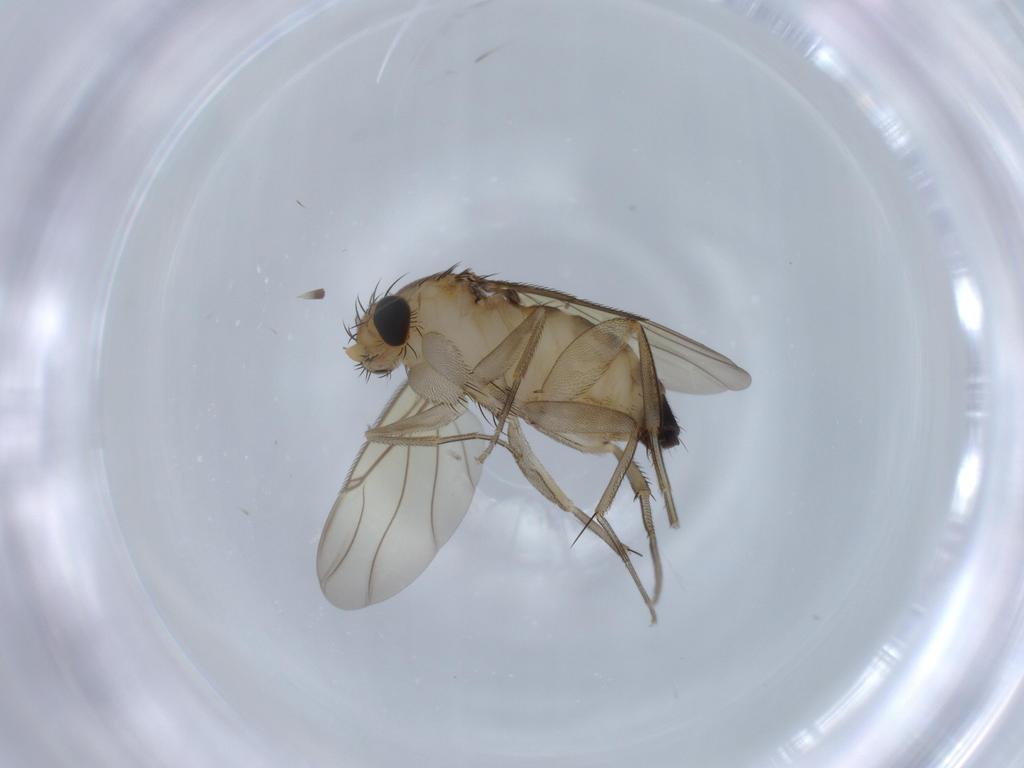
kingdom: Animalia
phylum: Arthropoda
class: Insecta
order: Diptera
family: Phoridae
